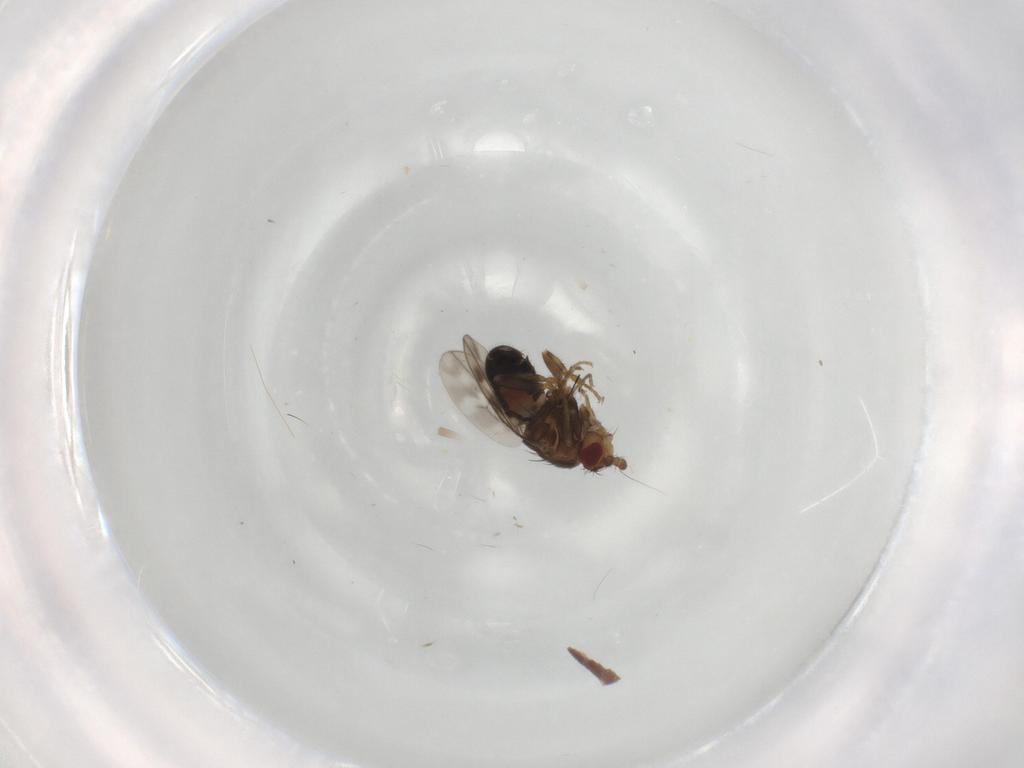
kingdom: Animalia
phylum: Arthropoda
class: Insecta
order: Diptera
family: Sphaeroceridae
